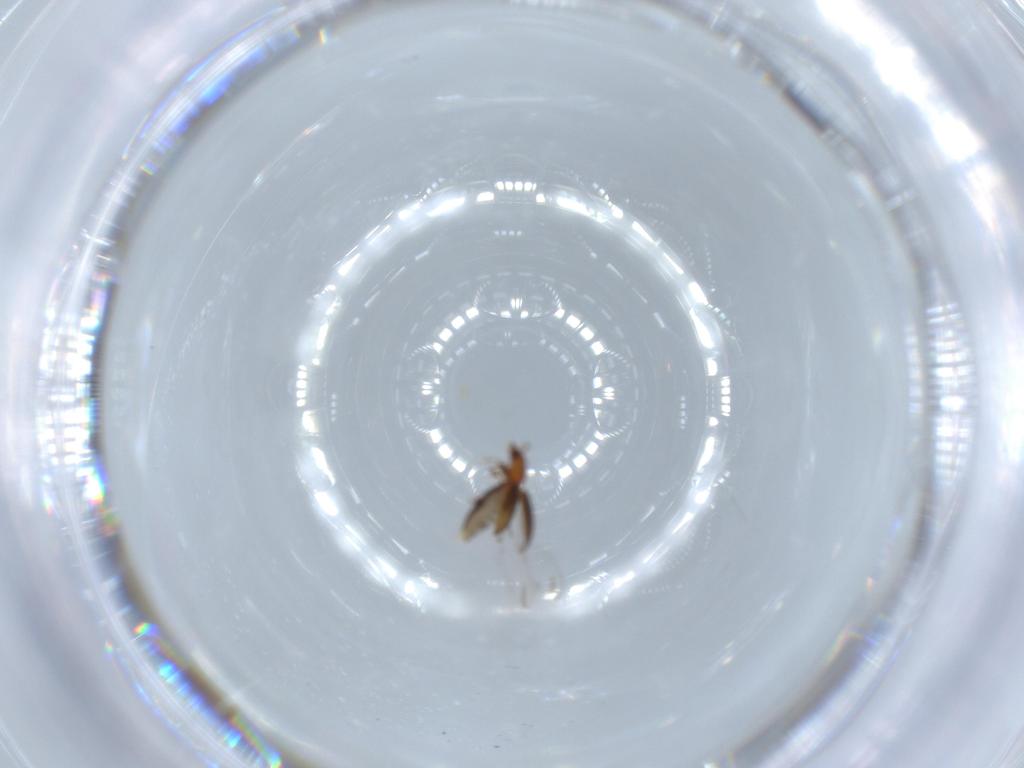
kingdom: Animalia
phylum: Arthropoda
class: Insecta
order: Coleoptera
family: Endomychidae
